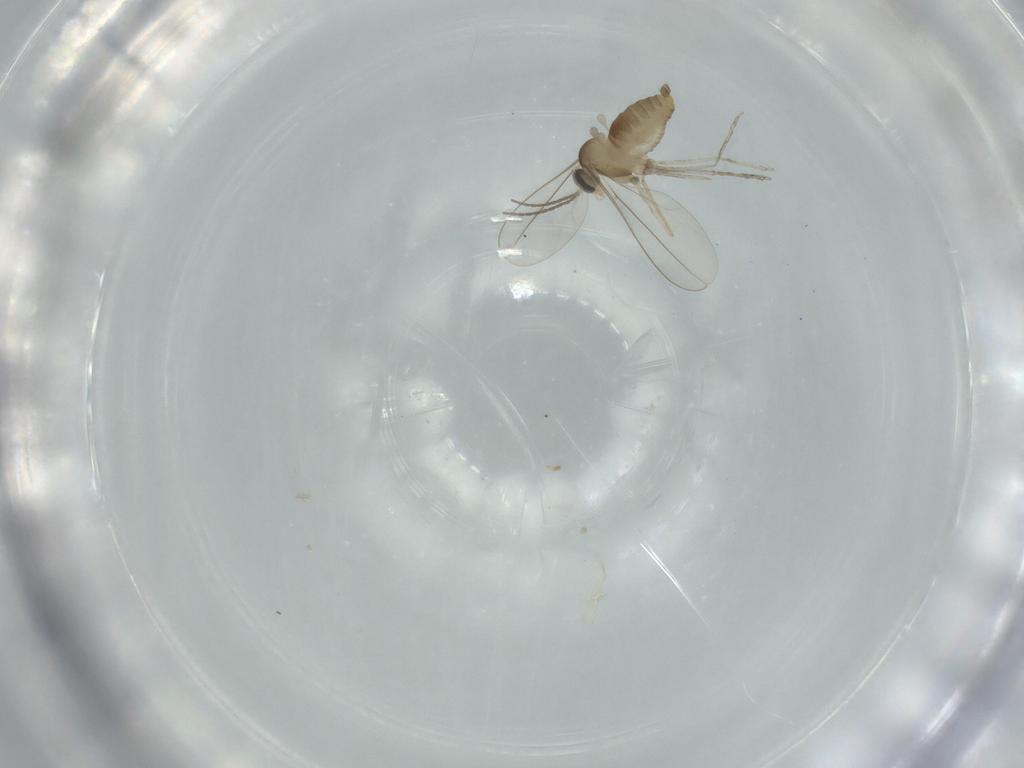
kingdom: Animalia
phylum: Arthropoda
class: Insecta
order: Diptera
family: Cecidomyiidae
